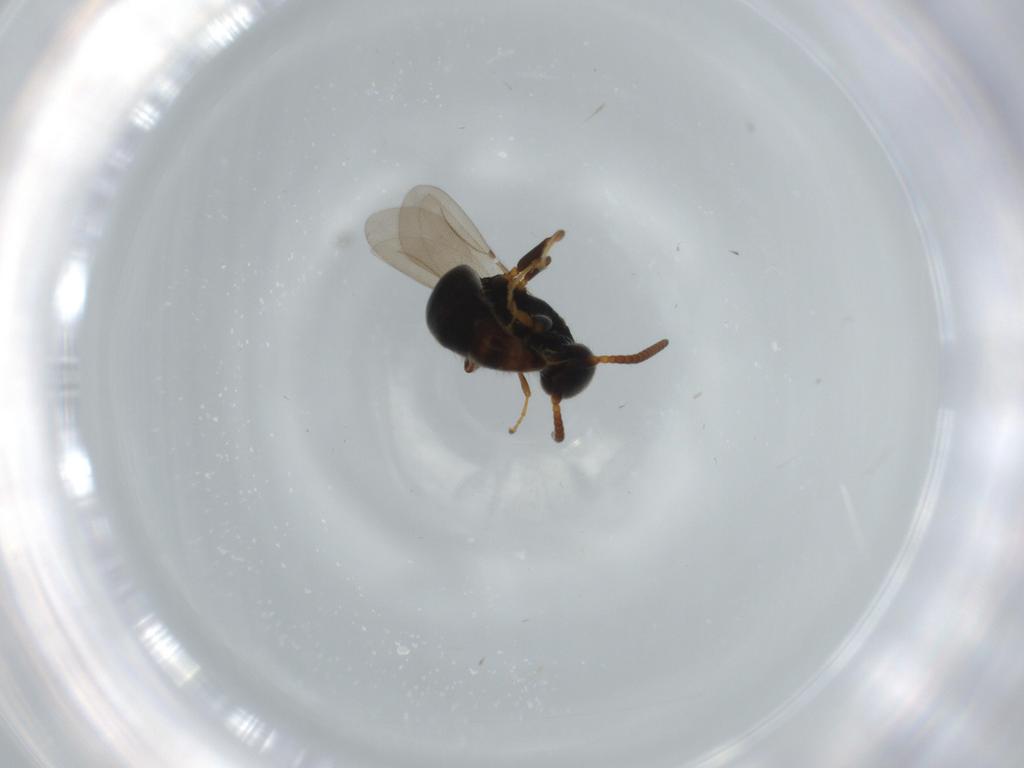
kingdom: Animalia
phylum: Arthropoda
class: Insecta
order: Hymenoptera
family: Bethylidae
